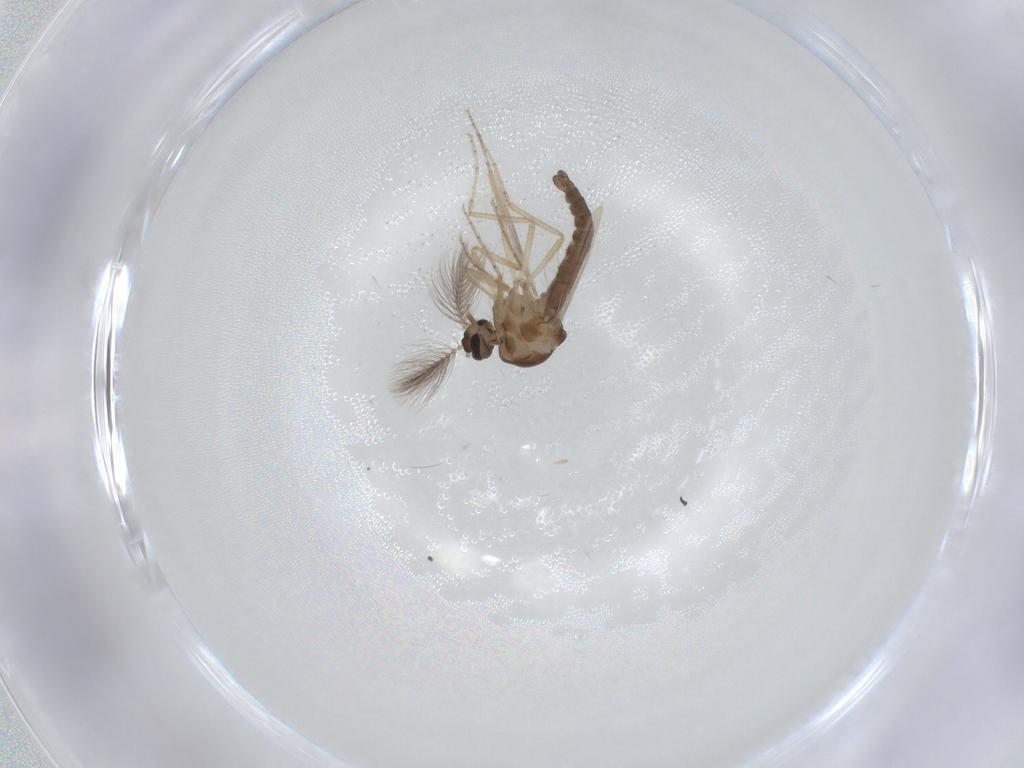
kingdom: Animalia
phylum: Arthropoda
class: Insecta
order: Diptera
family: Ceratopogonidae
